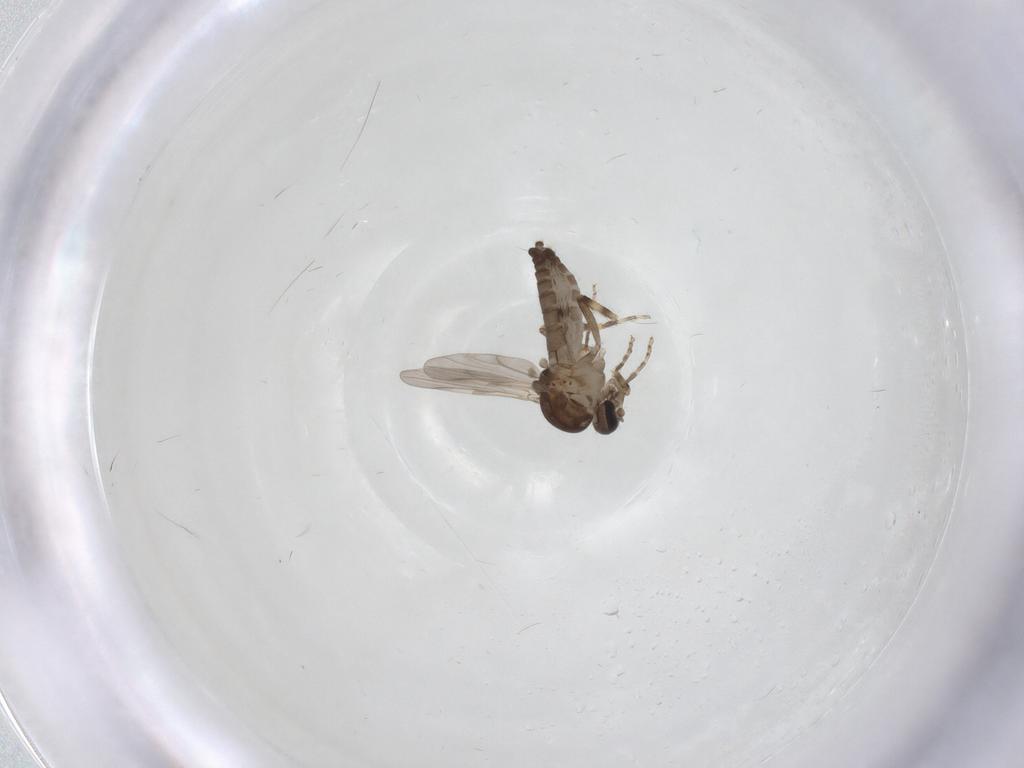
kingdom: Animalia
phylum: Arthropoda
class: Insecta
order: Diptera
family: Ceratopogonidae
